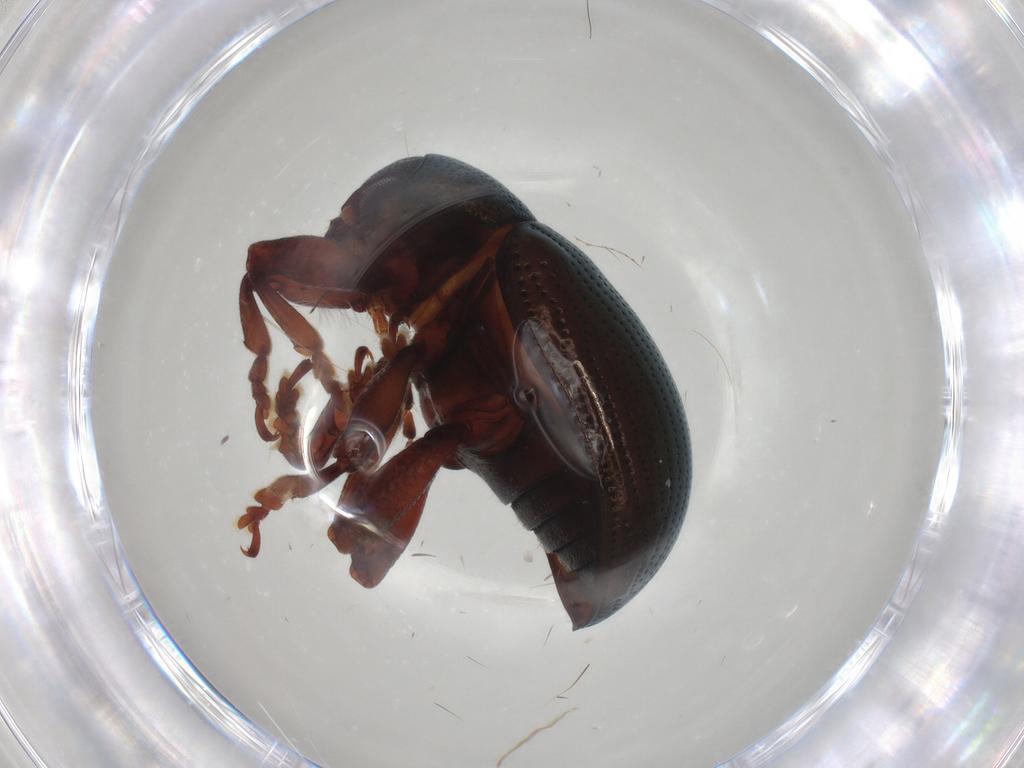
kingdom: Animalia
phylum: Arthropoda
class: Insecta
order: Coleoptera
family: Chrysomelidae
